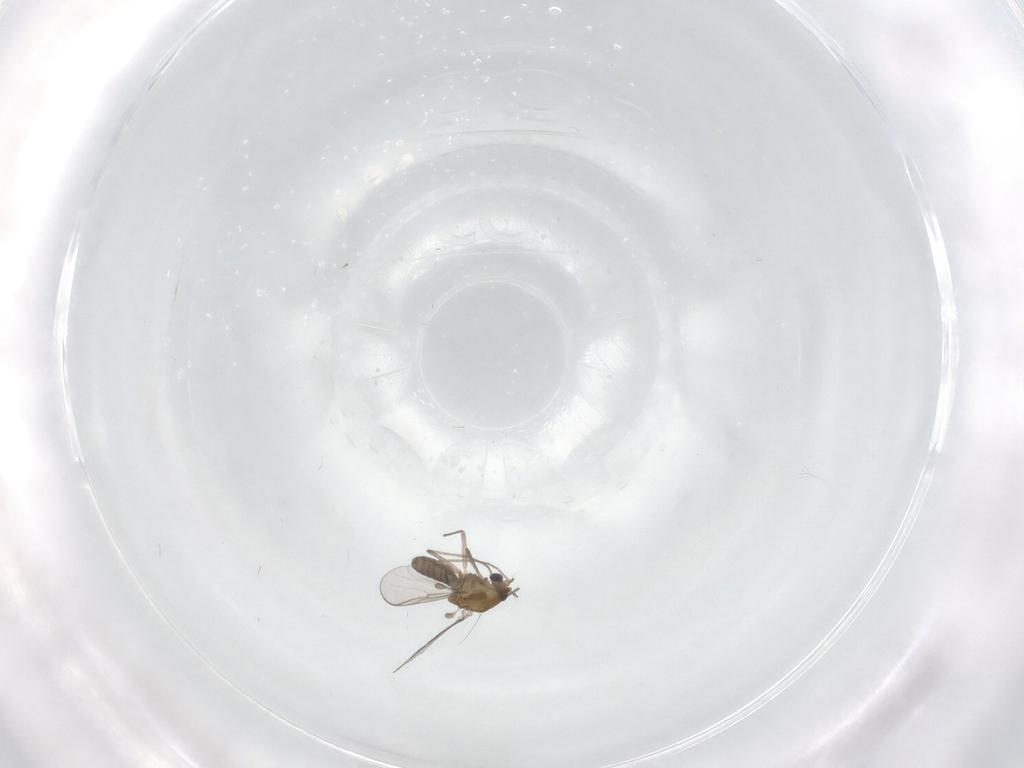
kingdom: Animalia
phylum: Arthropoda
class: Insecta
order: Diptera
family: Chironomidae
